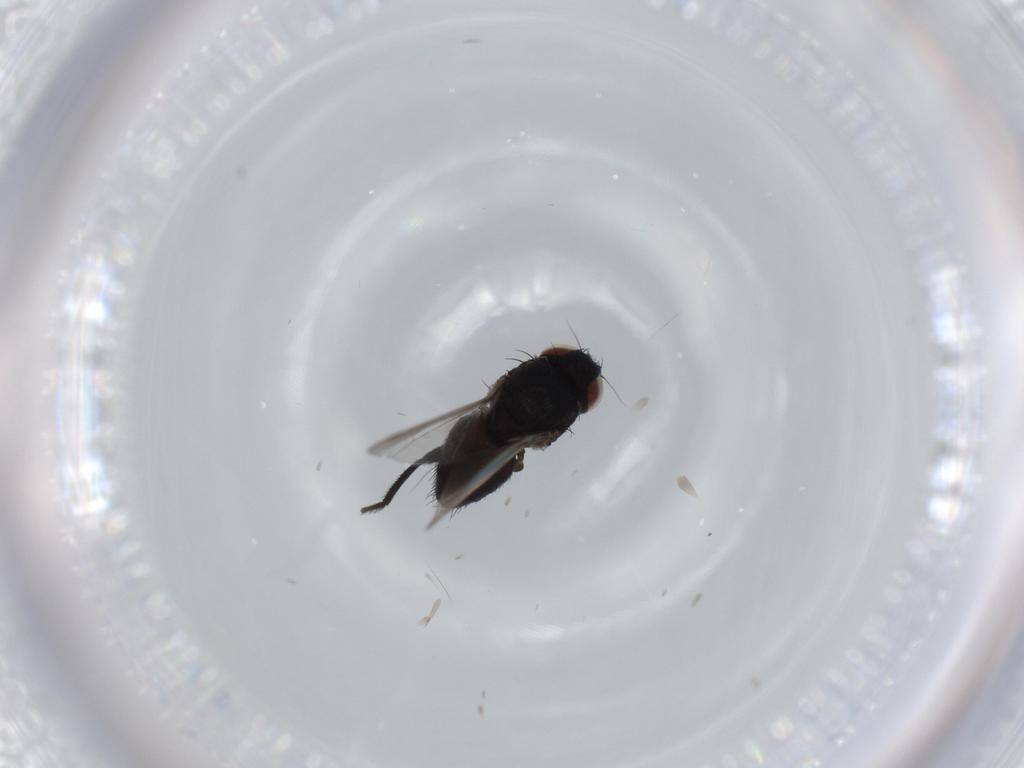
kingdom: Animalia
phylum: Arthropoda
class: Insecta
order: Diptera
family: Milichiidae
